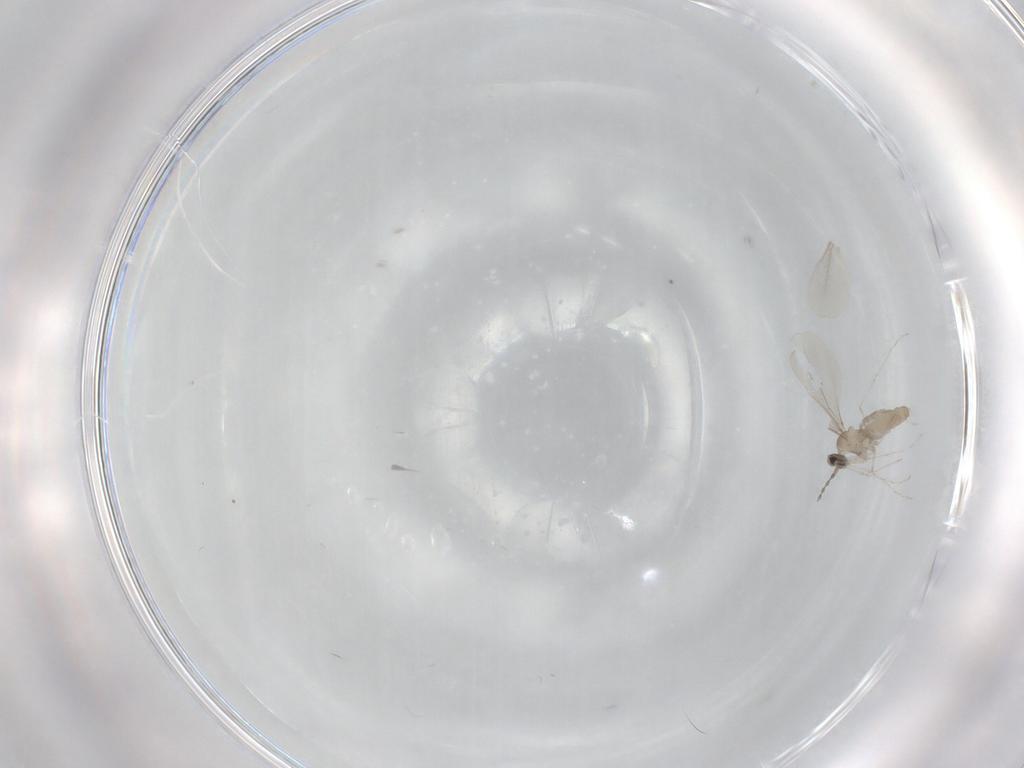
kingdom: Animalia
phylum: Arthropoda
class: Insecta
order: Diptera
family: Cecidomyiidae
